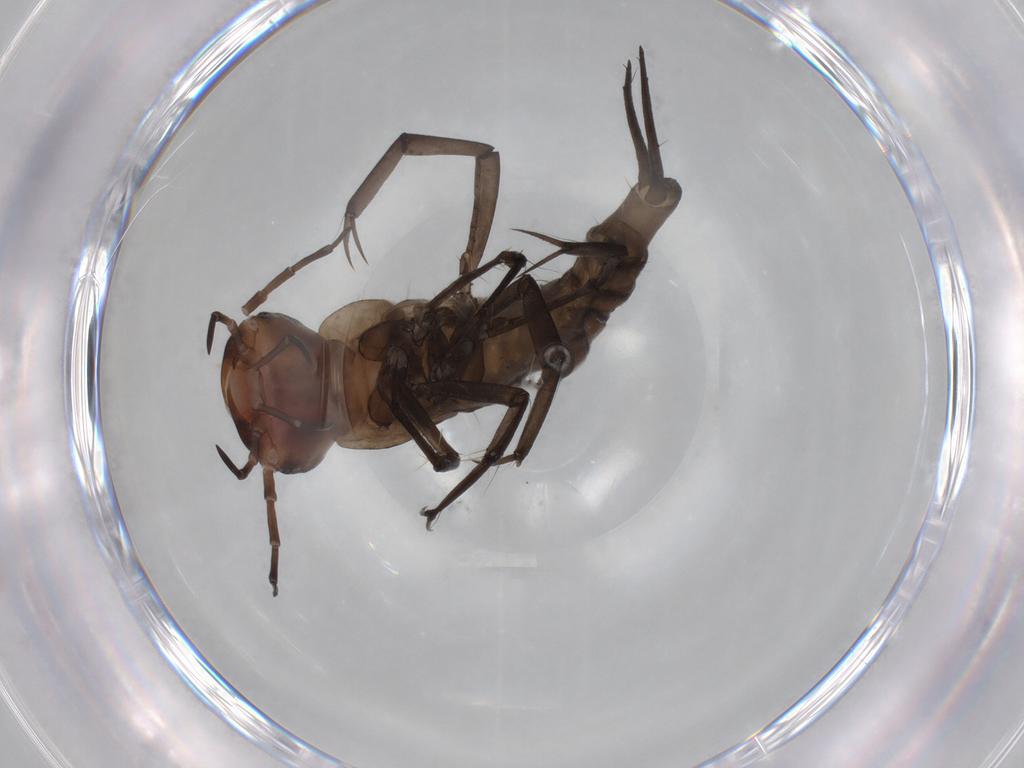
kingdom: Animalia
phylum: Arthropoda
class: Insecta
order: Coleoptera
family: Dytiscidae
